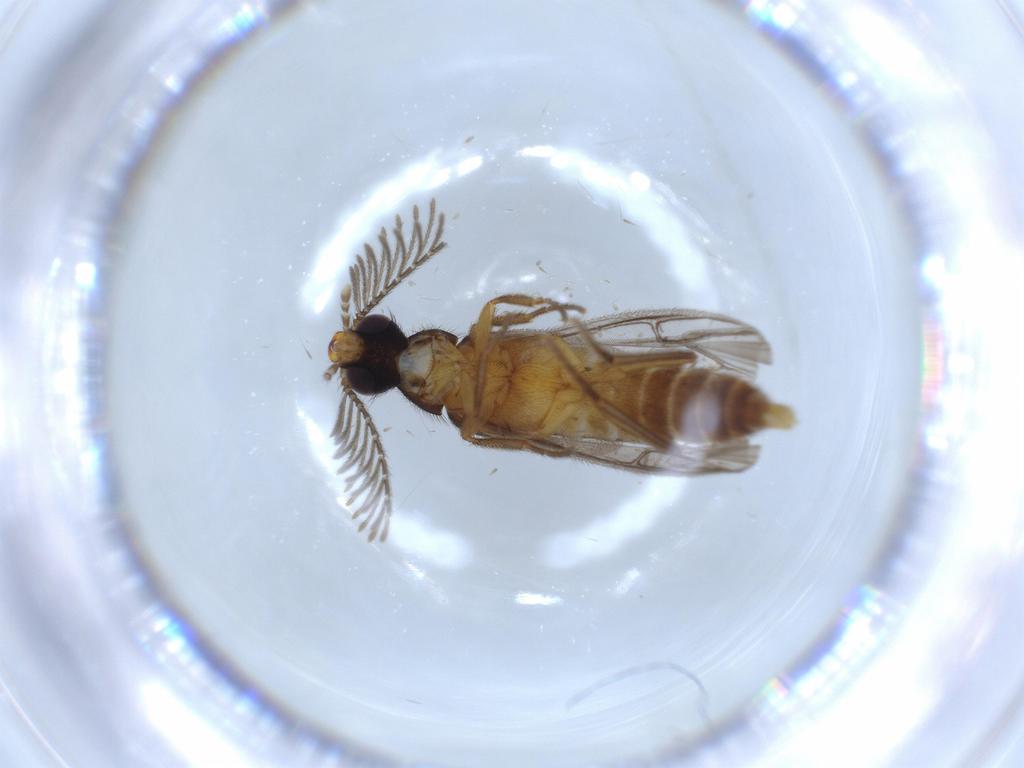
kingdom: Animalia
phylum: Arthropoda
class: Insecta
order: Coleoptera
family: Oedemeridae
